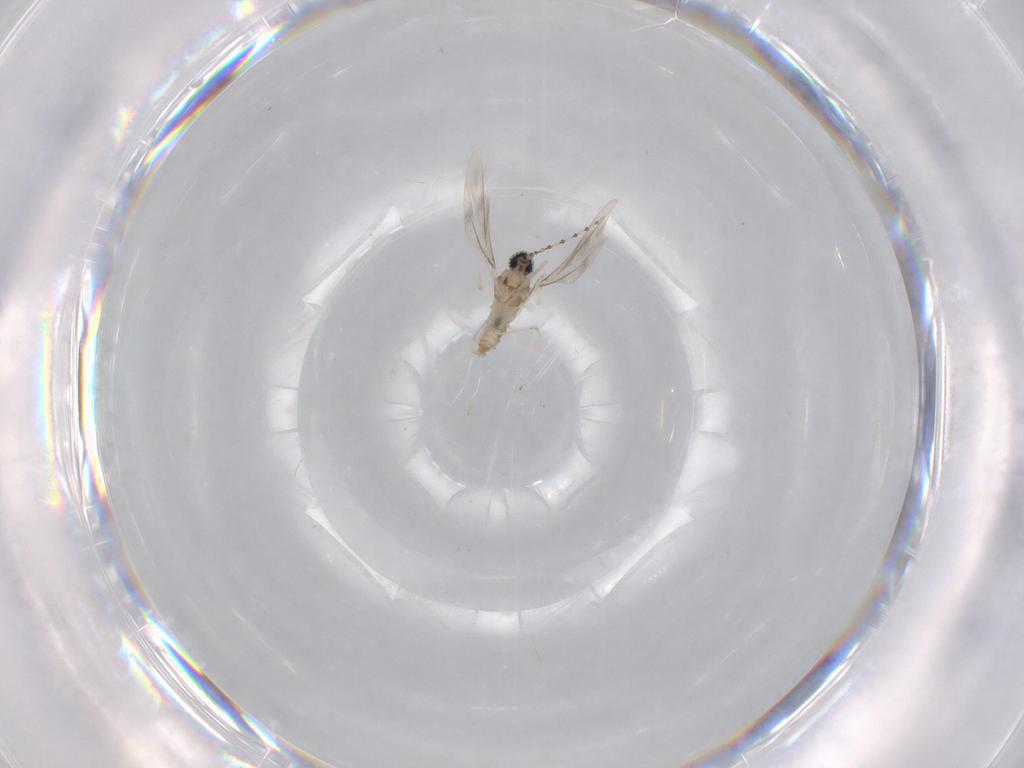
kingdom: Animalia
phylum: Arthropoda
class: Insecta
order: Diptera
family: Cecidomyiidae
